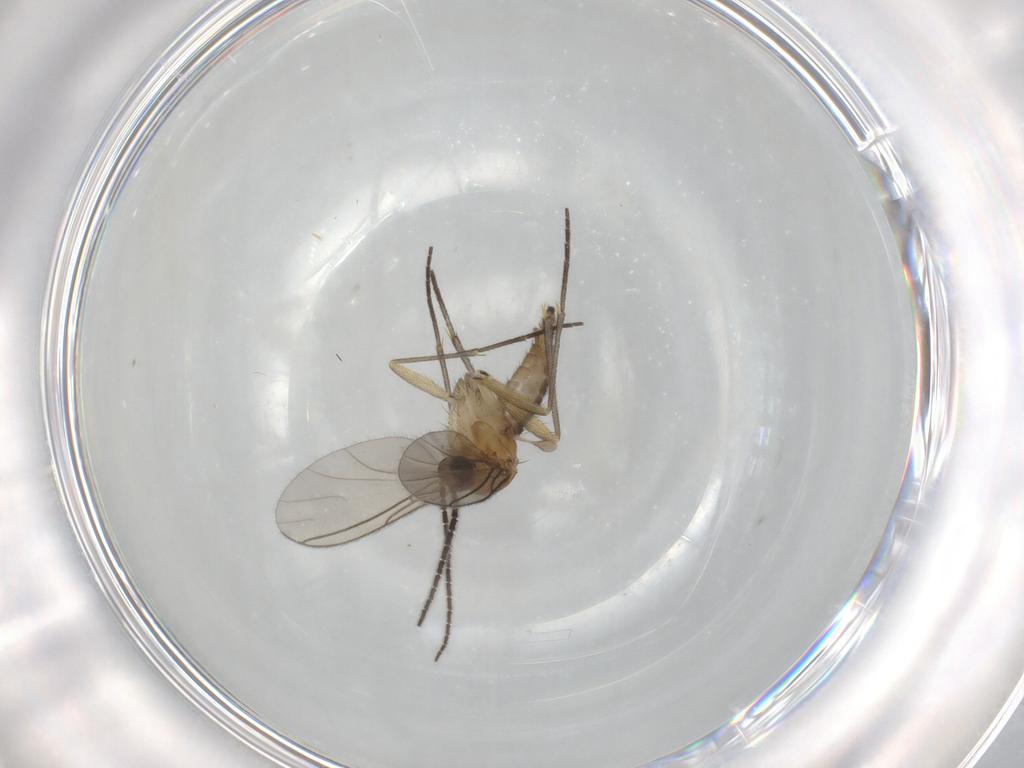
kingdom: Animalia
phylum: Arthropoda
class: Insecta
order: Diptera
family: Sciaridae
